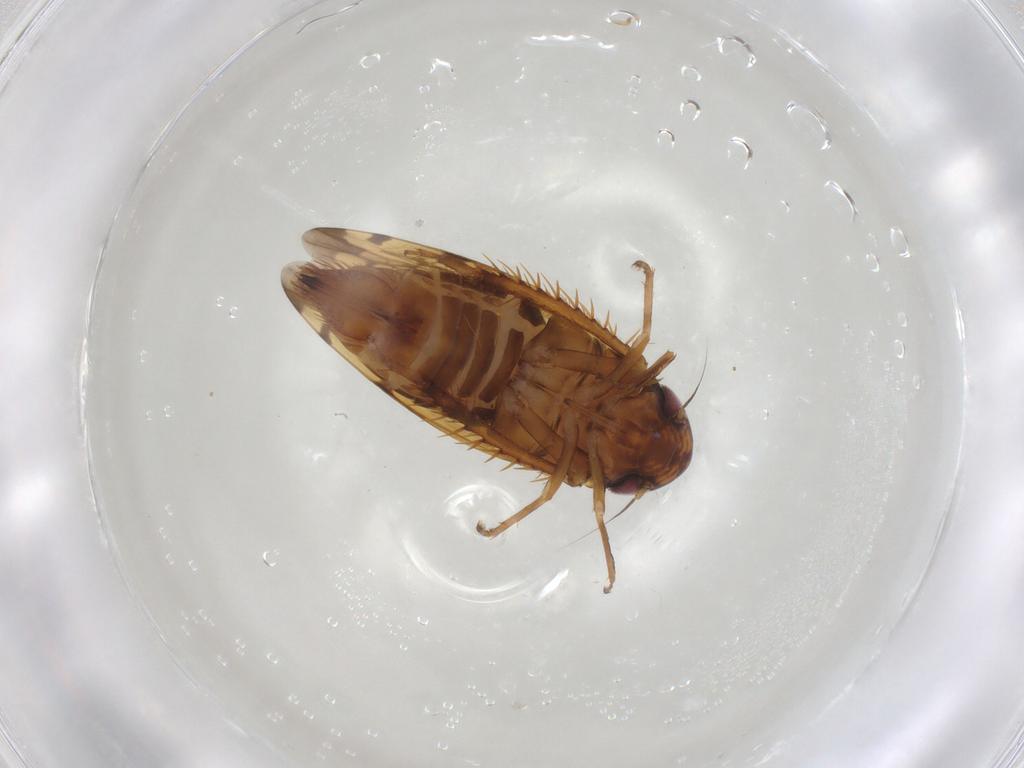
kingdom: Animalia
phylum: Arthropoda
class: Insecta
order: Hemiptera
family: Cicadellidae
